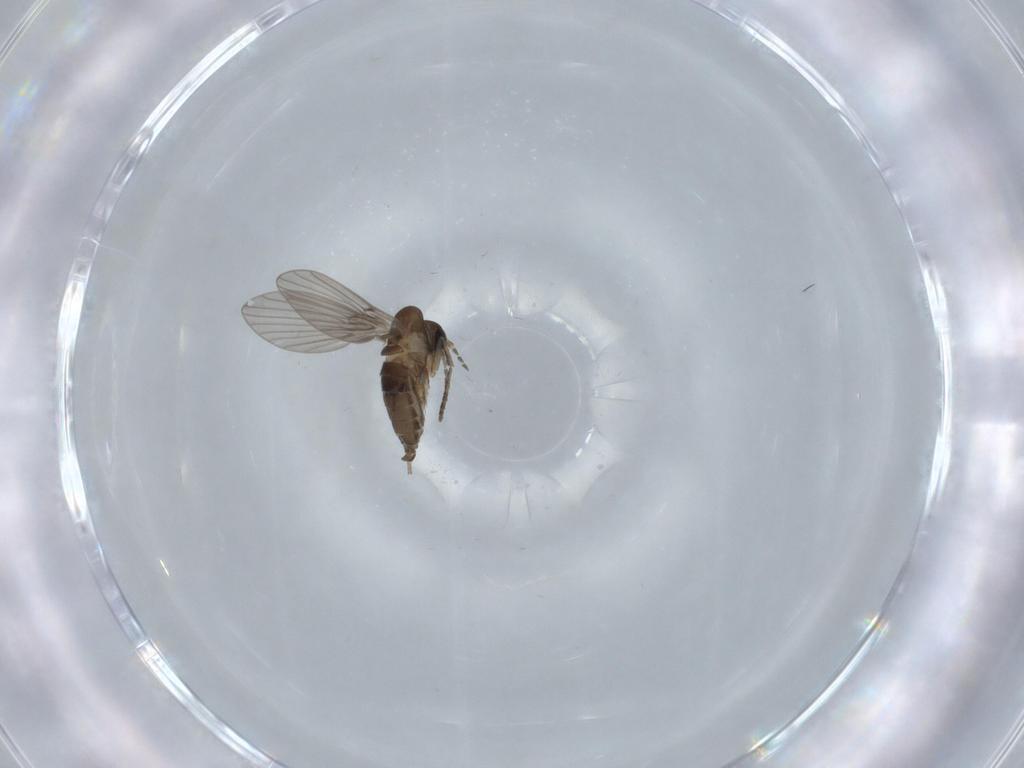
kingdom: Animalia
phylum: Arthropoda
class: Insecta
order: Diptera
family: Psychodidae
